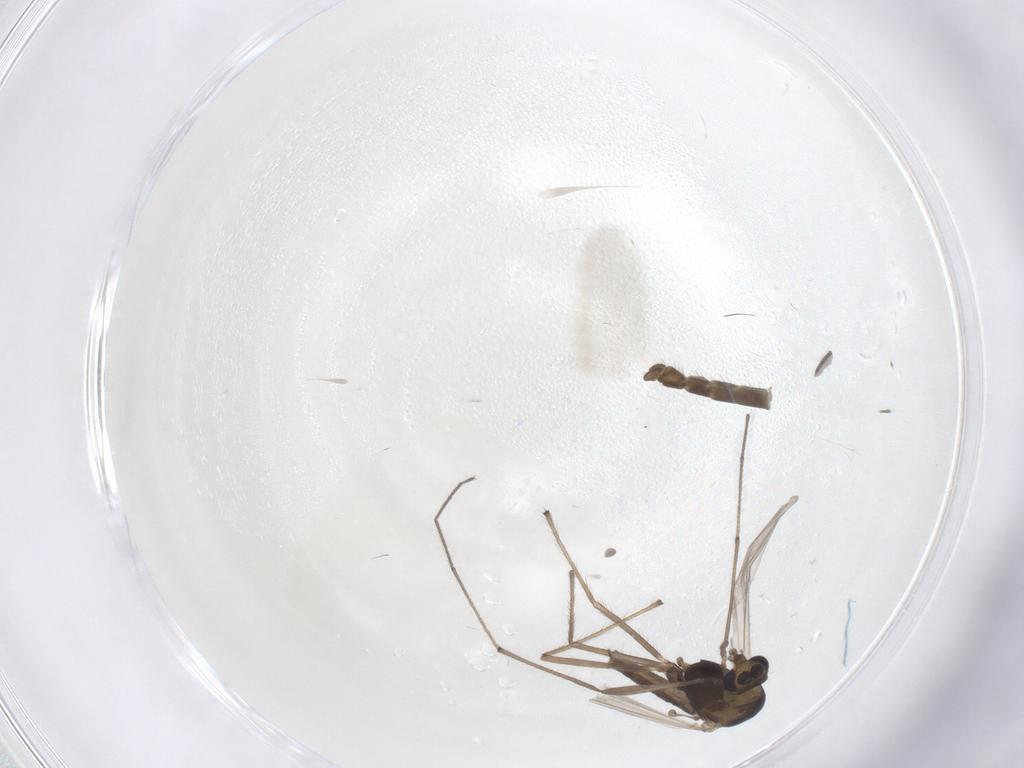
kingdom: Animalia
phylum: Arthropoda
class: Insecta
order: Diptera
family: Chironomidae
